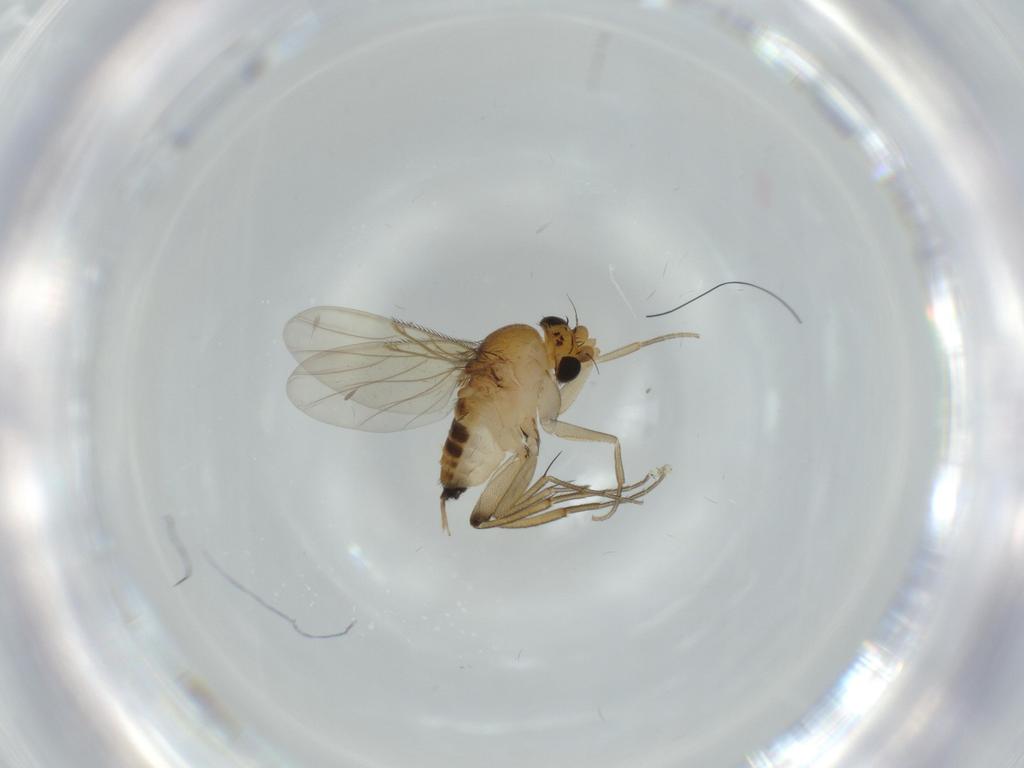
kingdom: Animalia
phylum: Arthropoda
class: Insecta
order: Diptera
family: Phoridae
